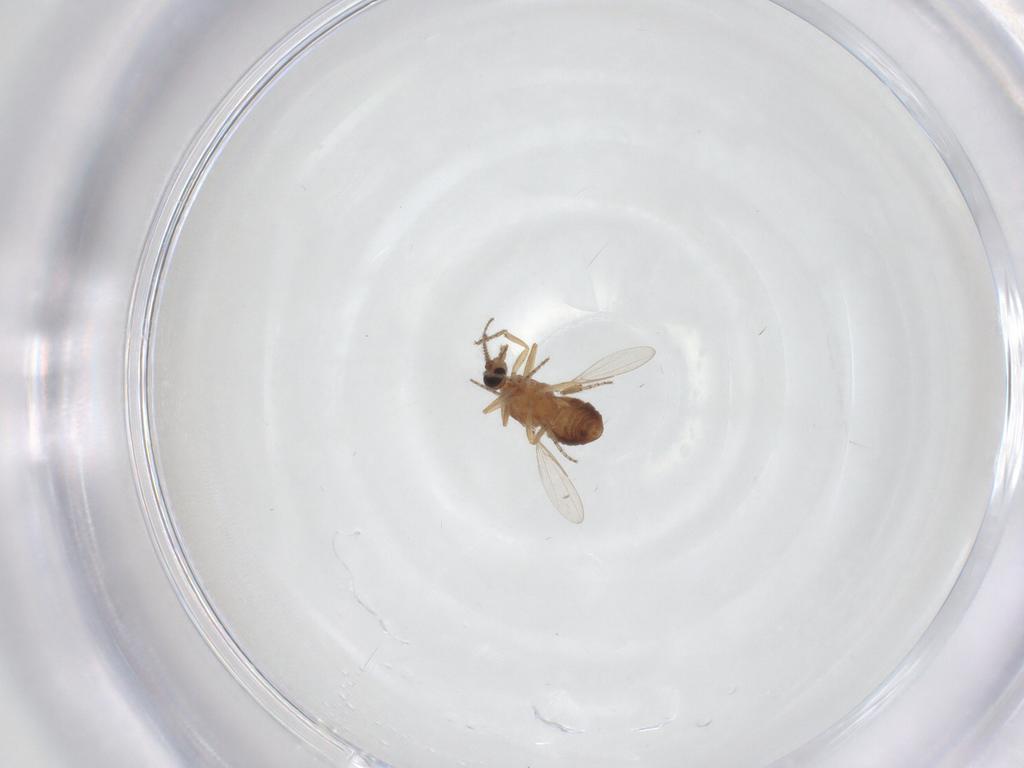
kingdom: Animalia
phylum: Arthropoda
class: Insecta
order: Diptera
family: Ceratopogonidae
